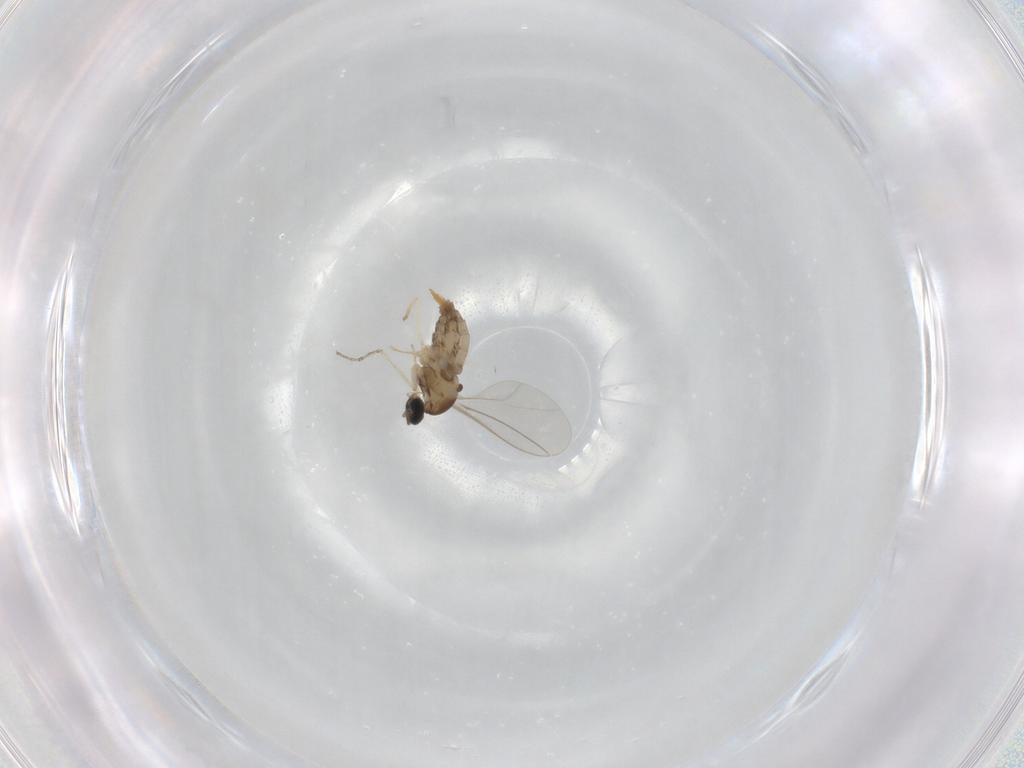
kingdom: Animalia
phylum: Arthropoda
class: Insecta
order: Diptera
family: Cecidomyiidae
